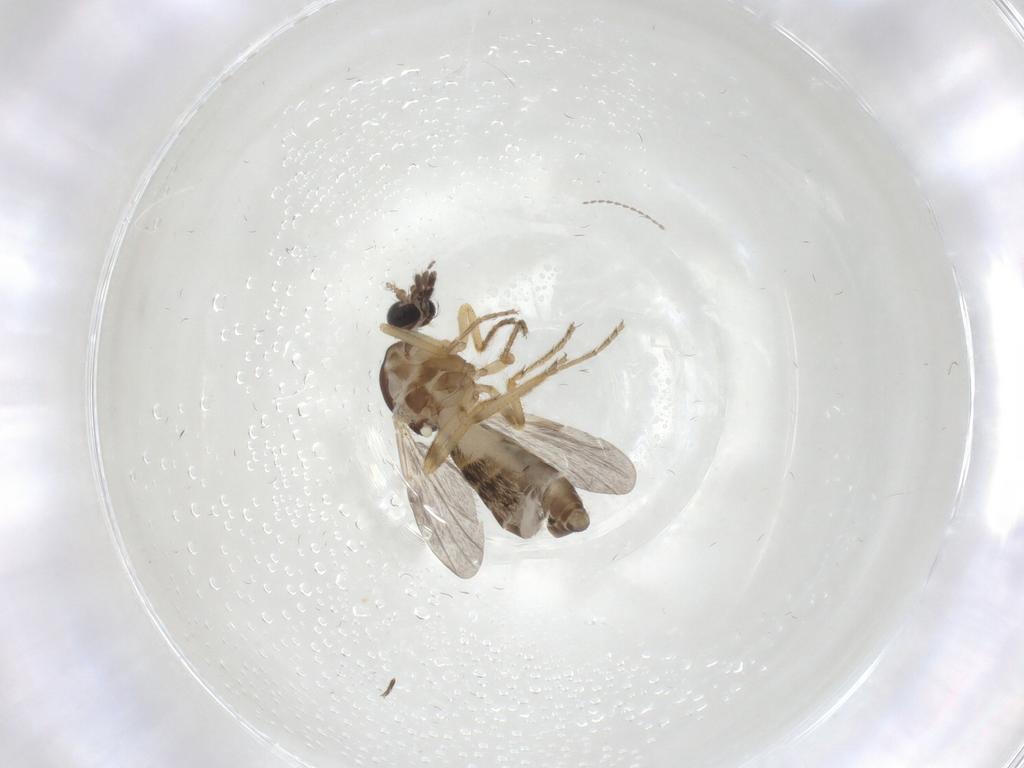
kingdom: Animalia
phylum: Arthropoda
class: Insecta
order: Diptera
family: Ceratopogonidae
